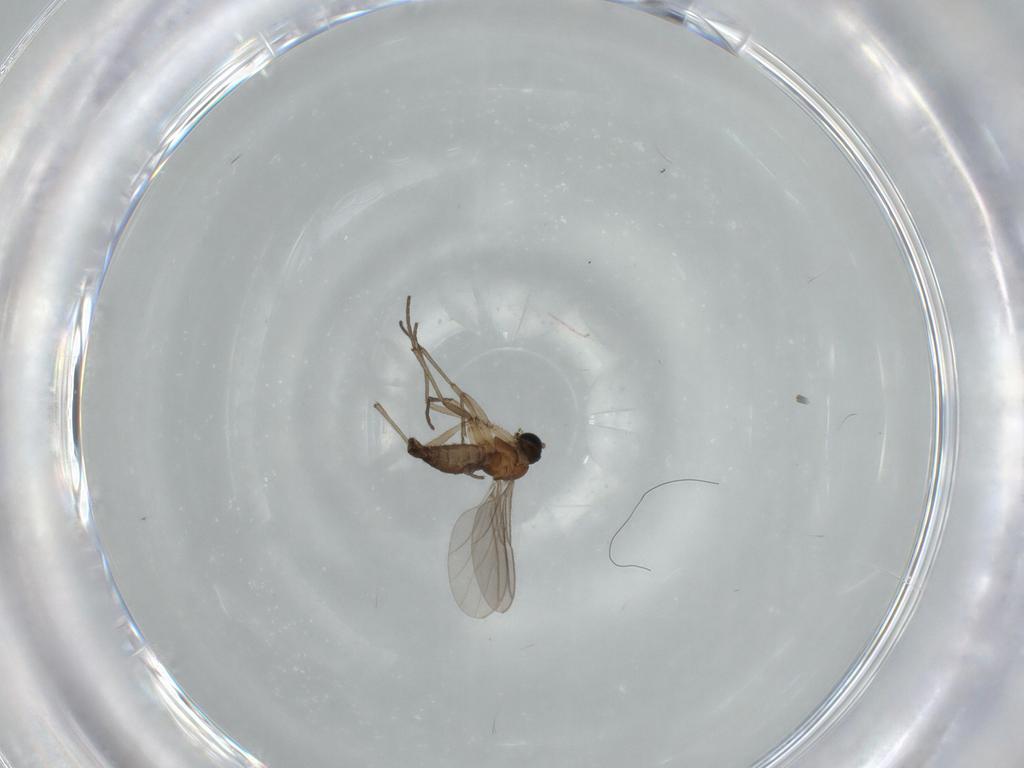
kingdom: Animalia
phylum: Arthropoda
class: Insecta
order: Diptera
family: Sciaridae
